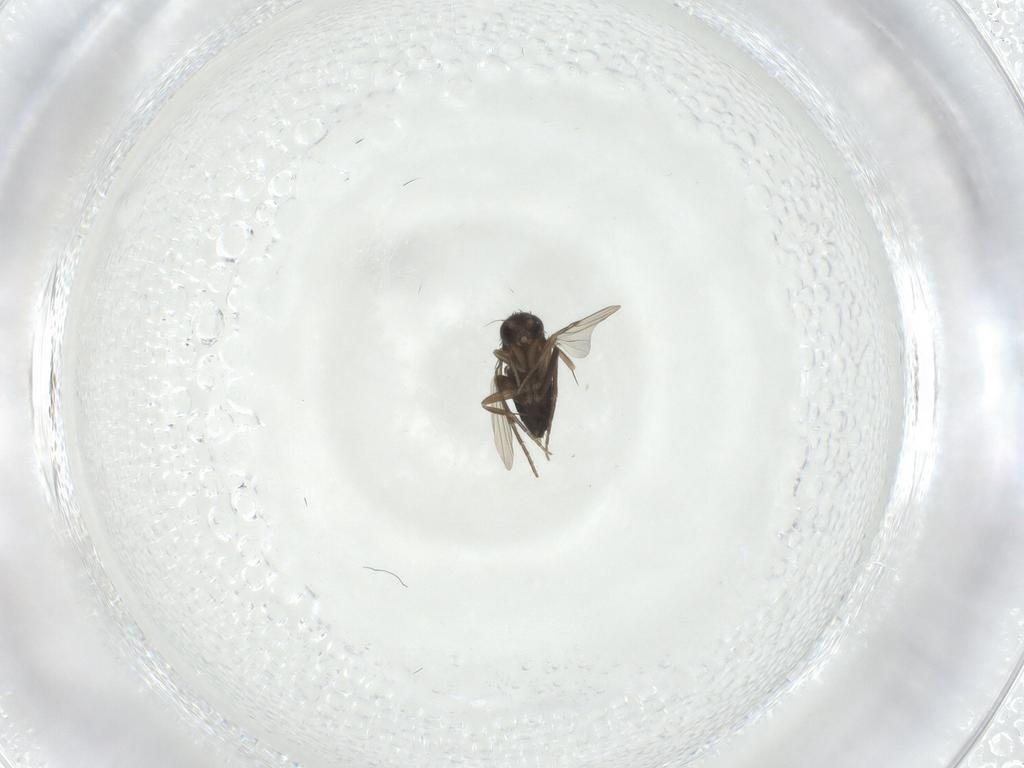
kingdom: Animalia
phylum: Arthropoda
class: Insecta
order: Diptera
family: Phoridae
